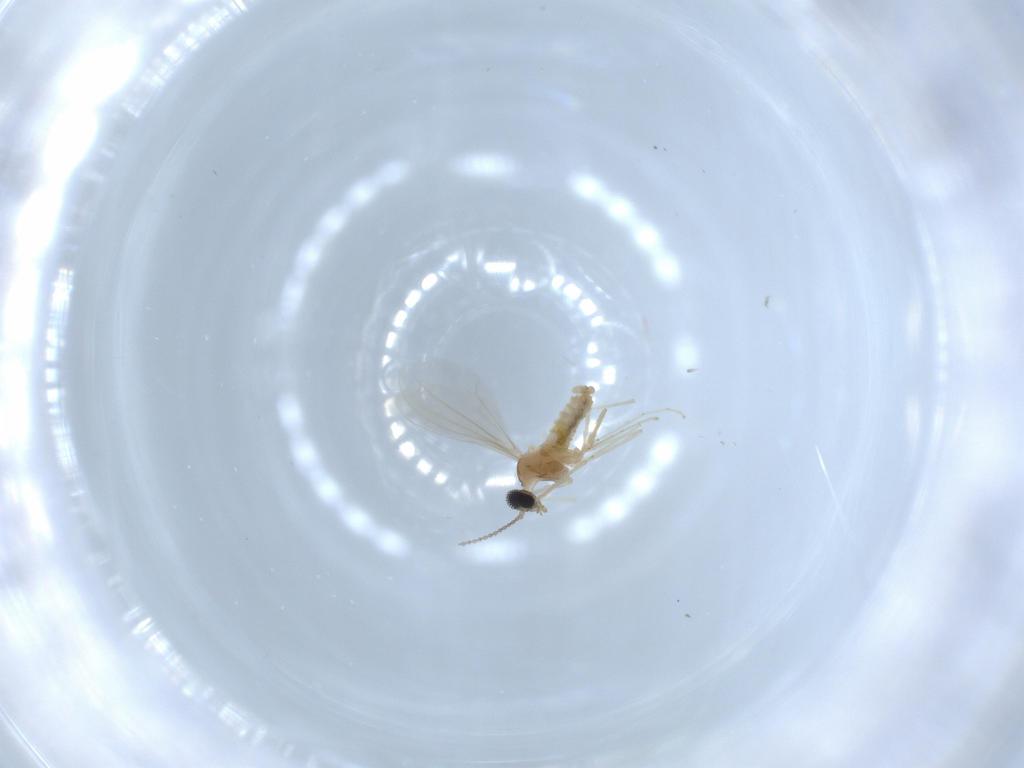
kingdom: Animalia
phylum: Arthropoda
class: Insecta
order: Diptera
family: Cecidomyiidae
